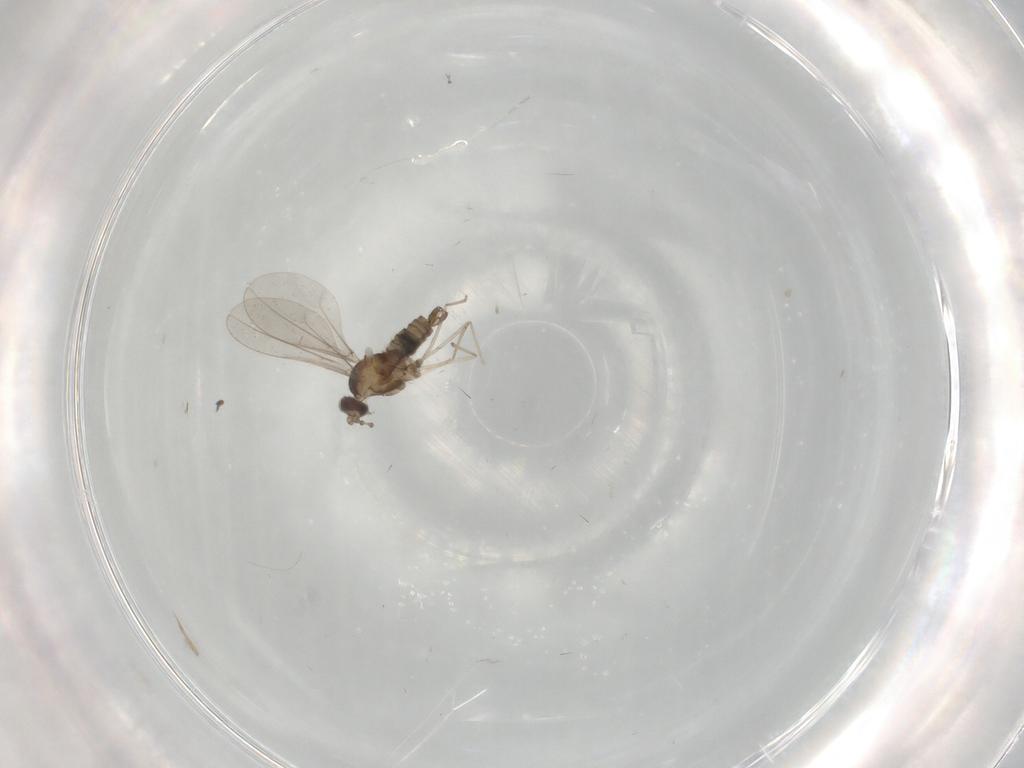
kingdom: Animalia
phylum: Arthropoda
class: Insecta
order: Diptera
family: Cecidomyiidae
